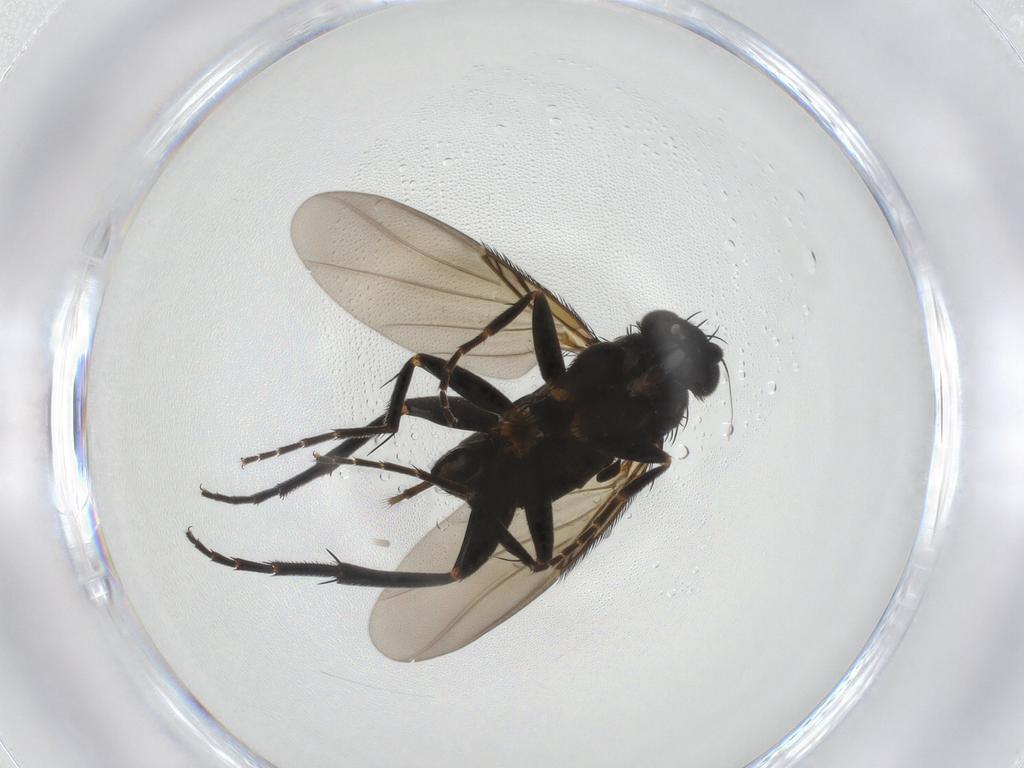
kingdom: Animalia
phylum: Arthropoda
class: Insecta
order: Diptera
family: Phoridae
